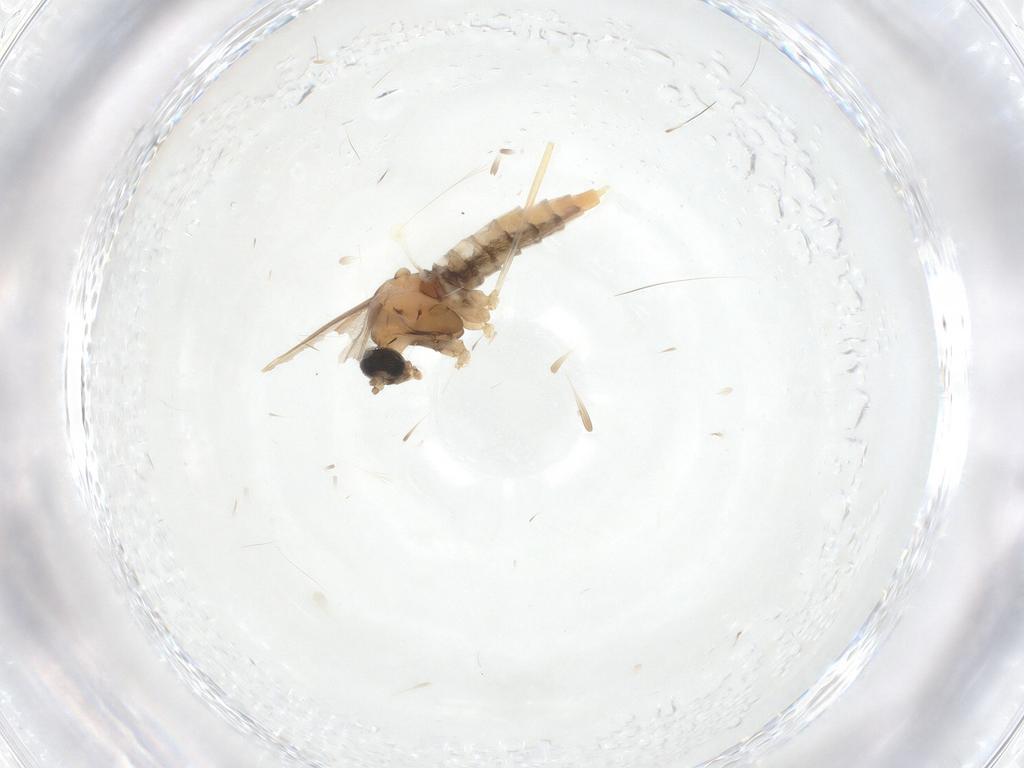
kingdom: Animalia
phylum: Arthropoda
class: Insecta
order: Diptera
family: Cecidomyiidae
